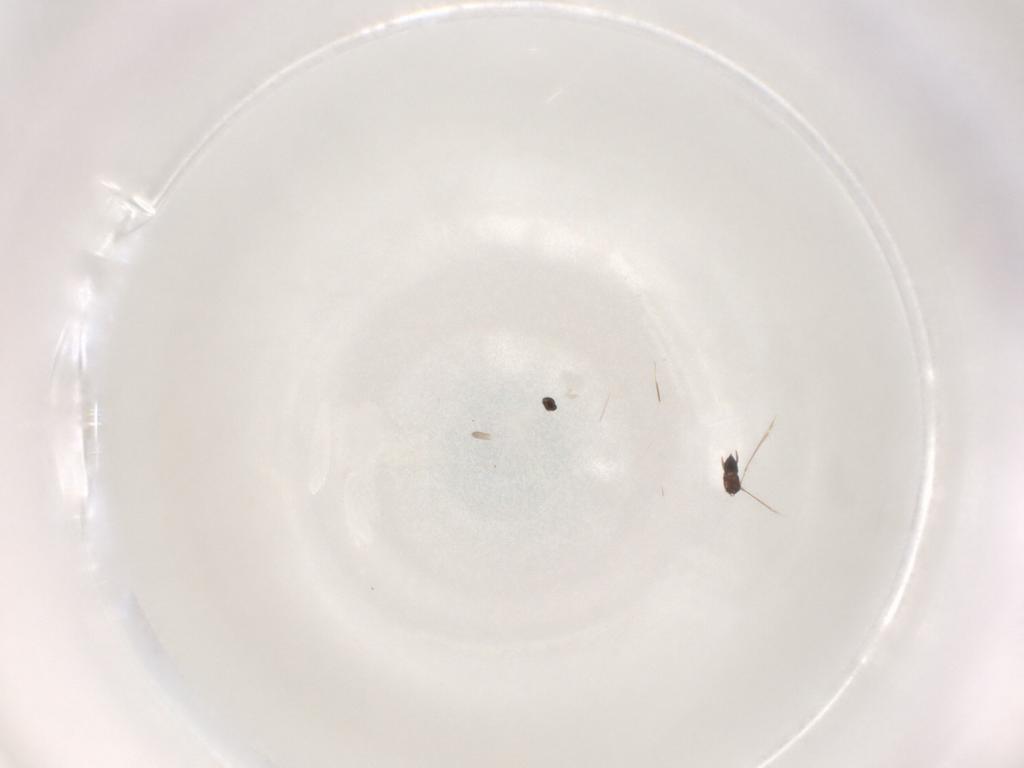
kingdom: Animalia
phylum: Arthropoda
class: Insecta
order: Hymenoptera
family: Mymaridae
